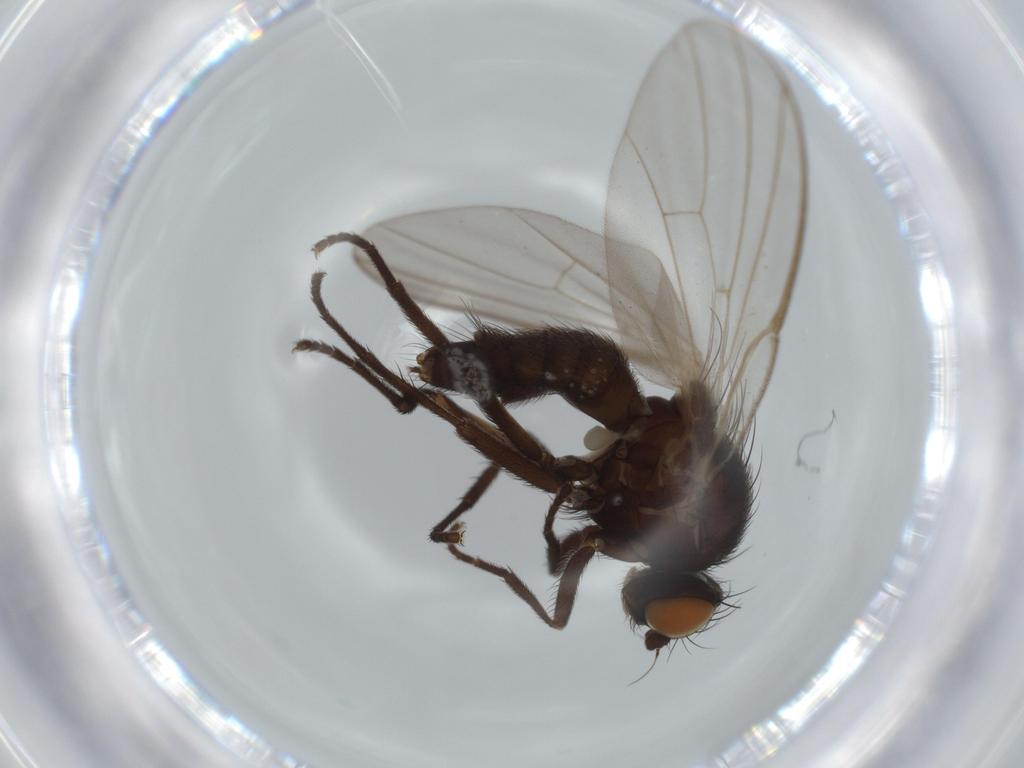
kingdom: Animalia
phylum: Arthropoda
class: Insecta
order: Diptera
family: Agromyzidae
